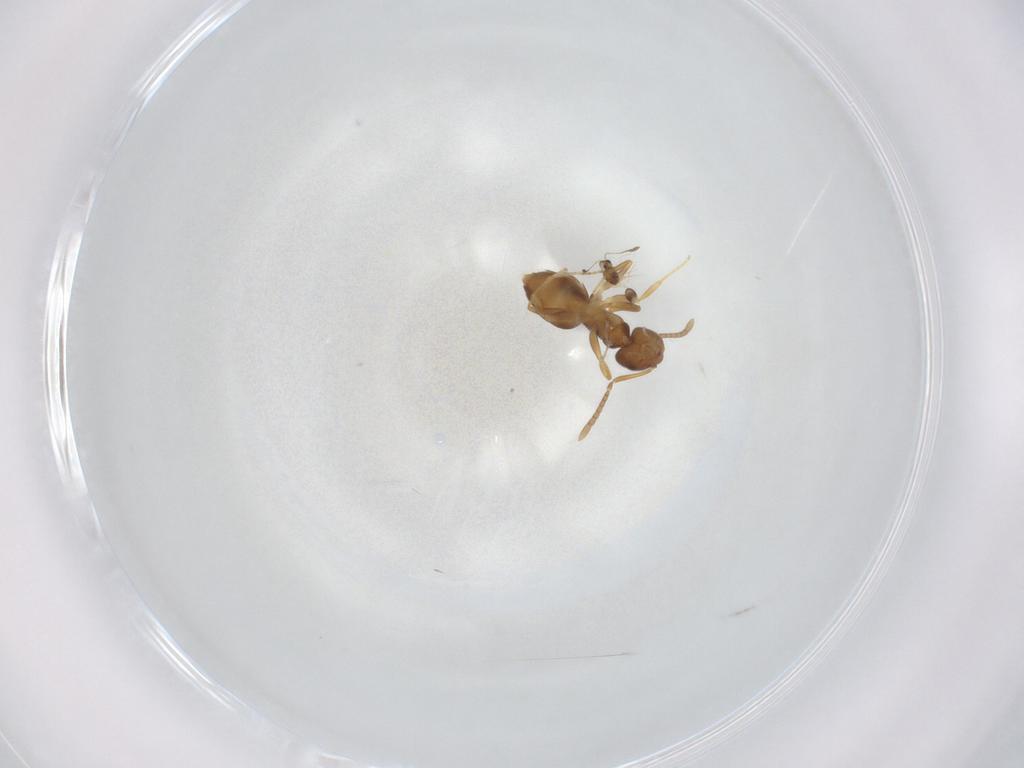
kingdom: Animalia
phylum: Arthropoda
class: Insecta
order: Hymenoptera
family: Formicidae
